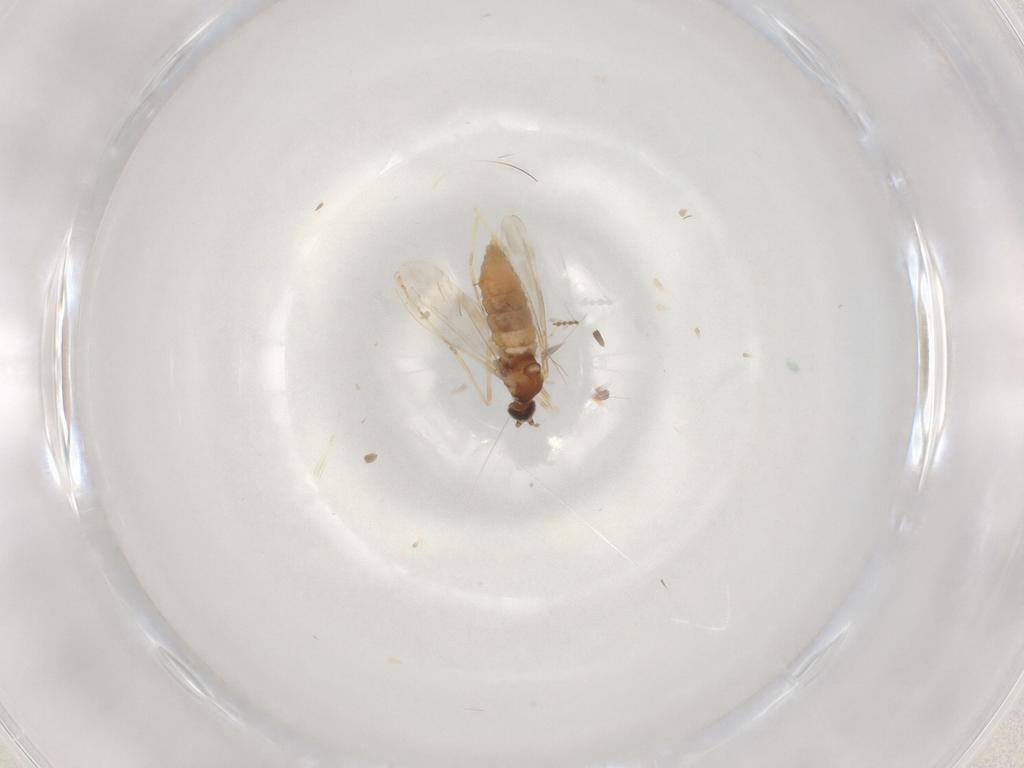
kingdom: Animalia
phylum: Arthropoda
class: Insecta
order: Diptera
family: Cecidomyiidae
